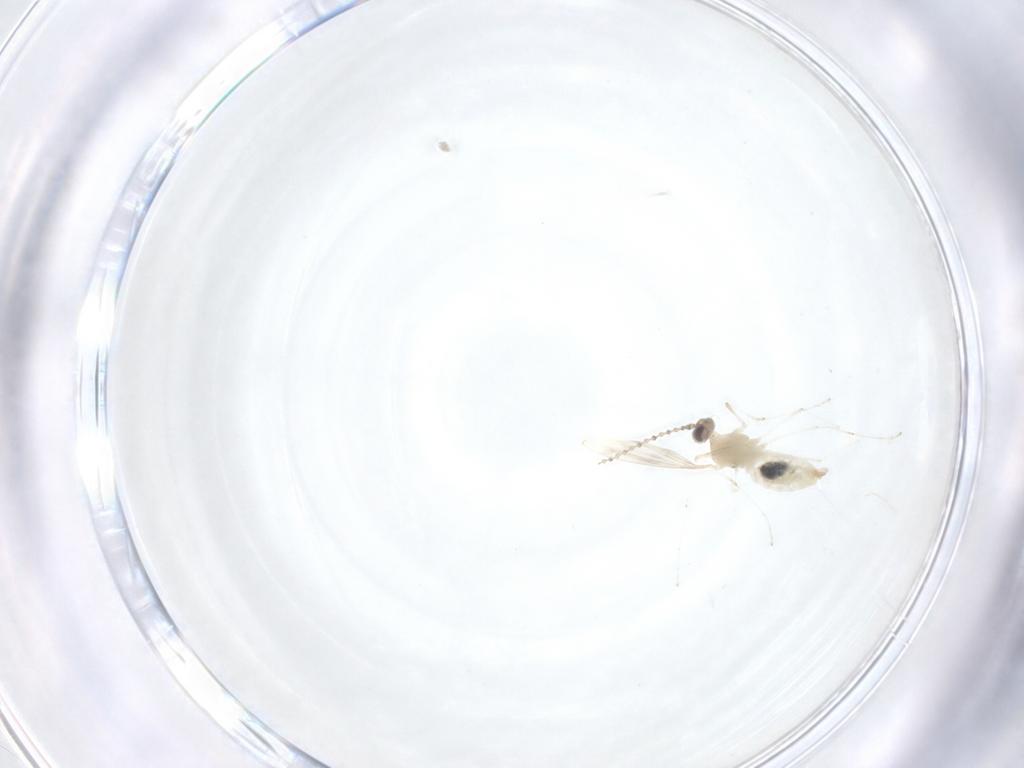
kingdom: Animalia
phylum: Arthropoda
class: Insecta
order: Diptera
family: Cecidomyiidae
